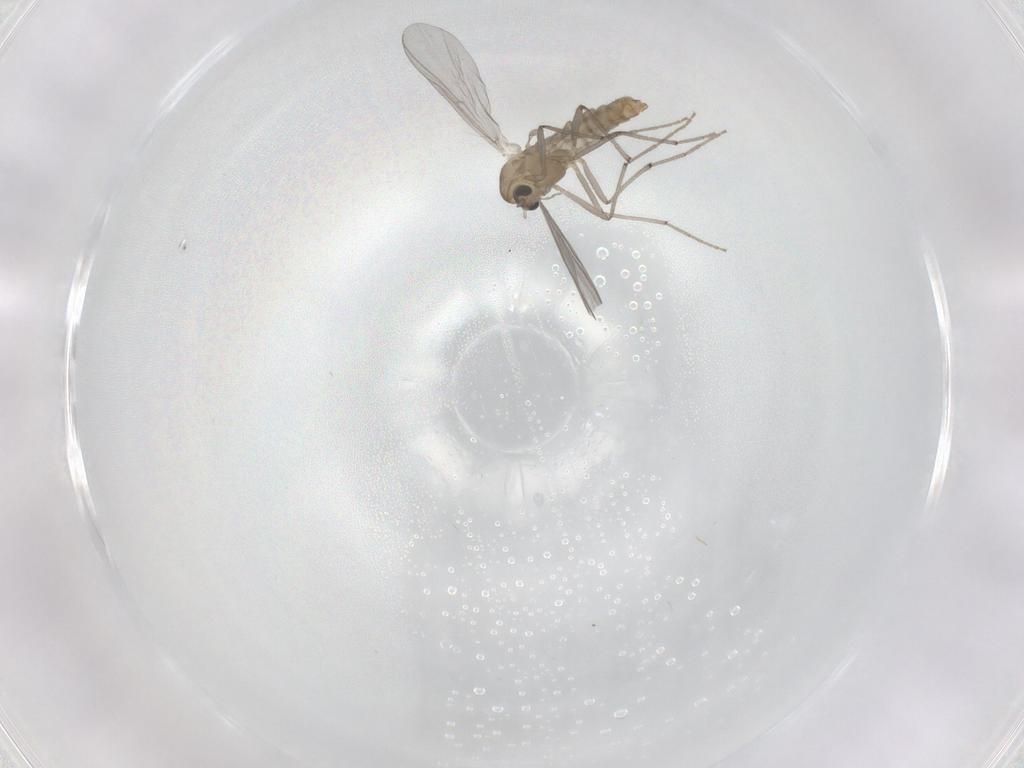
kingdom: Animalia
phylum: Arthropoda
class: Insecta
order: Diptera
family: Chironomidae
